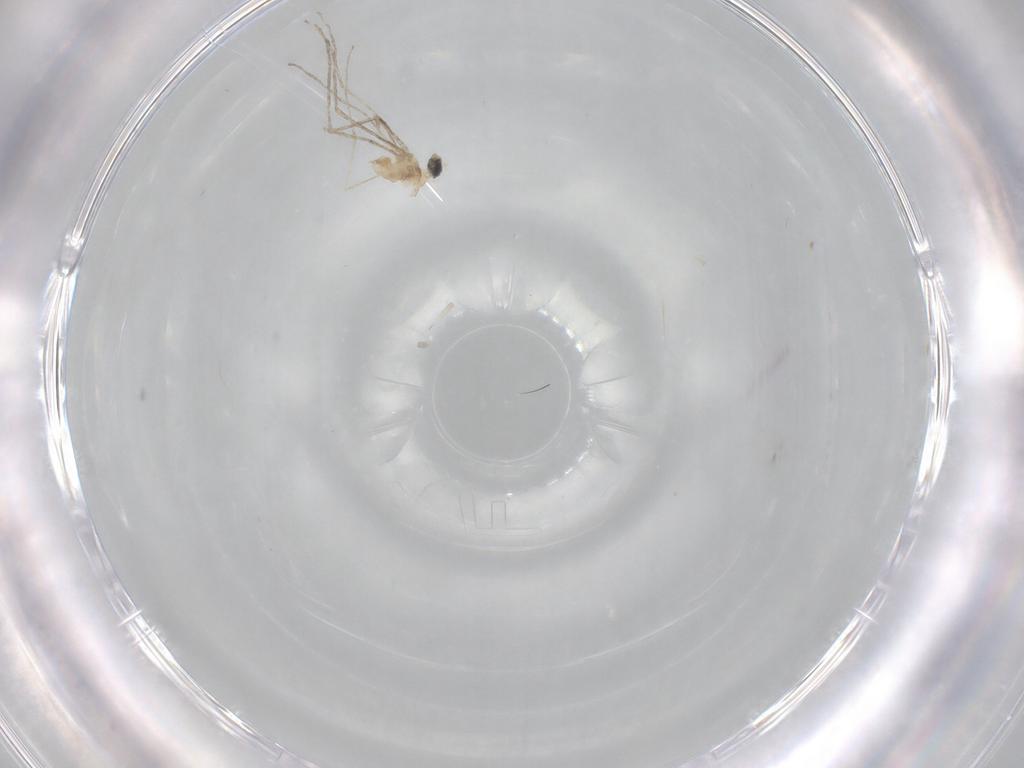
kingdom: Animalia
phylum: Arthropoda
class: Insecta
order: Diptera
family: Cecidomyiidae
